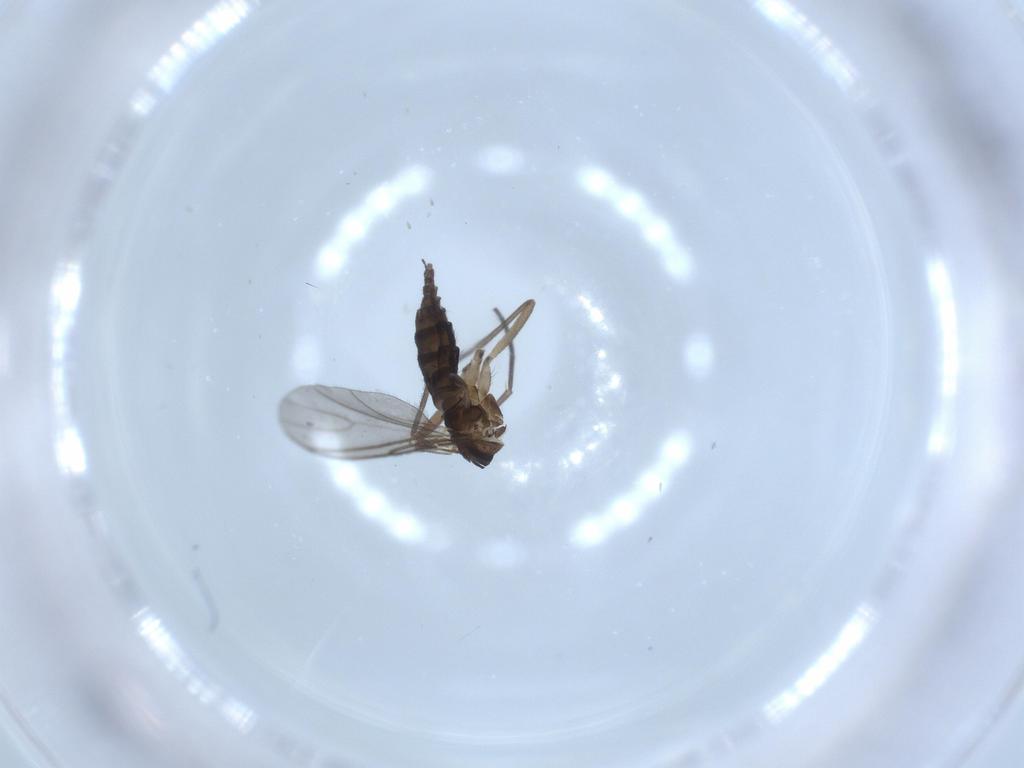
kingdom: Animalia
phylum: Arthropoda
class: Insecta
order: Diptera
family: Sciaridae
